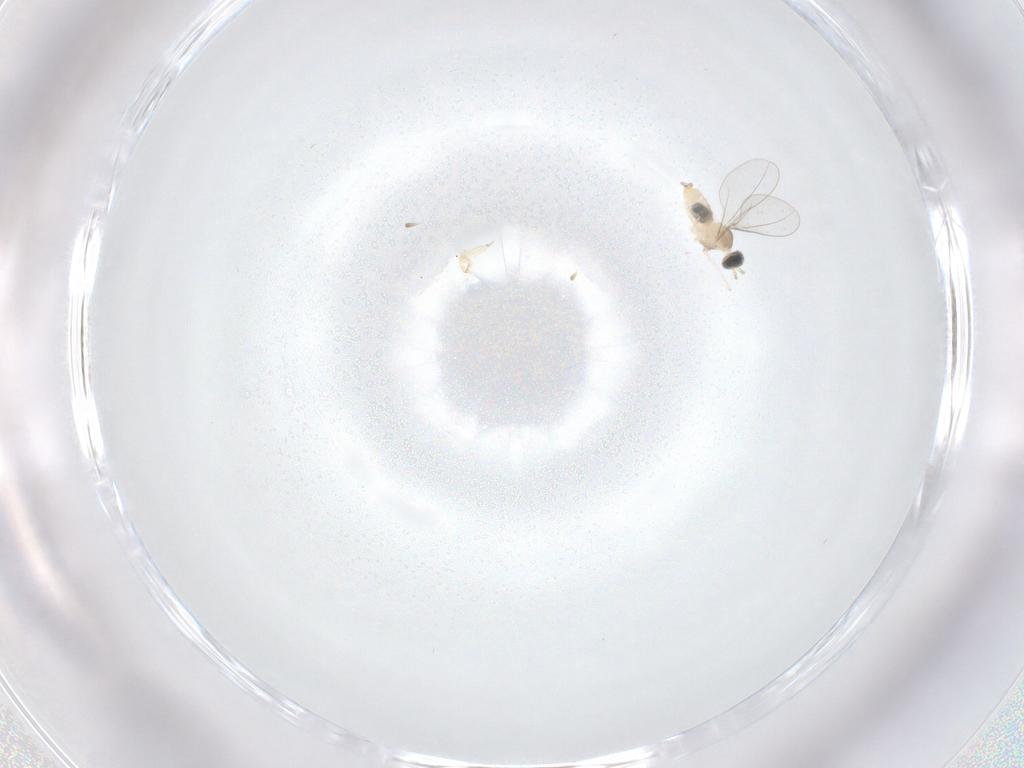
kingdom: Animalia
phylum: Arthropoda
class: Insecta
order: Diptera
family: Cecidomyiidae
